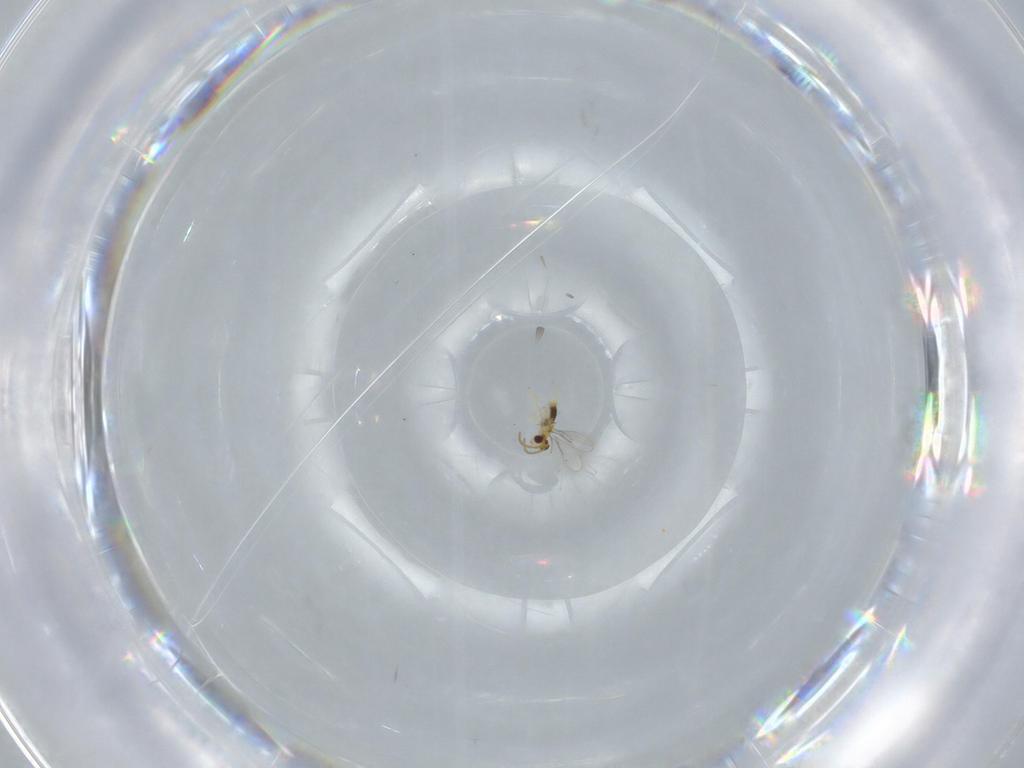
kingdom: Animalia
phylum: Arthropoda
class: Insecta
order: Hymenoptera
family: Aphelinidae
